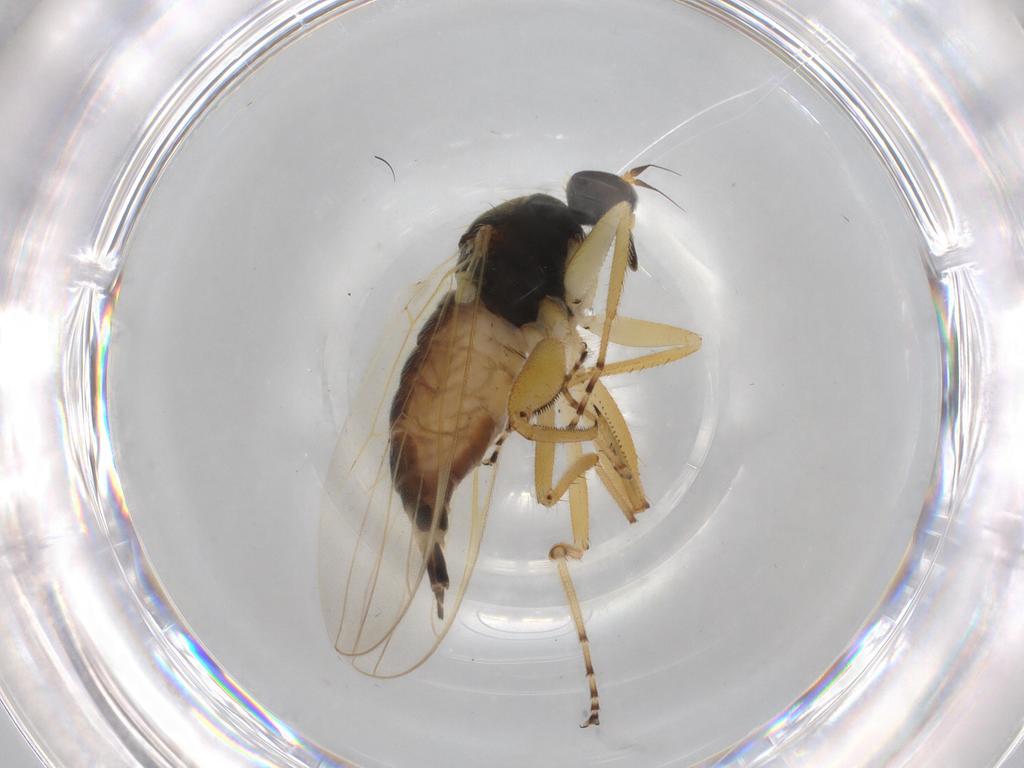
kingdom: Animalia
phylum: Arthropoda
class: Insecta
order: Diptera
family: Hybotidae
